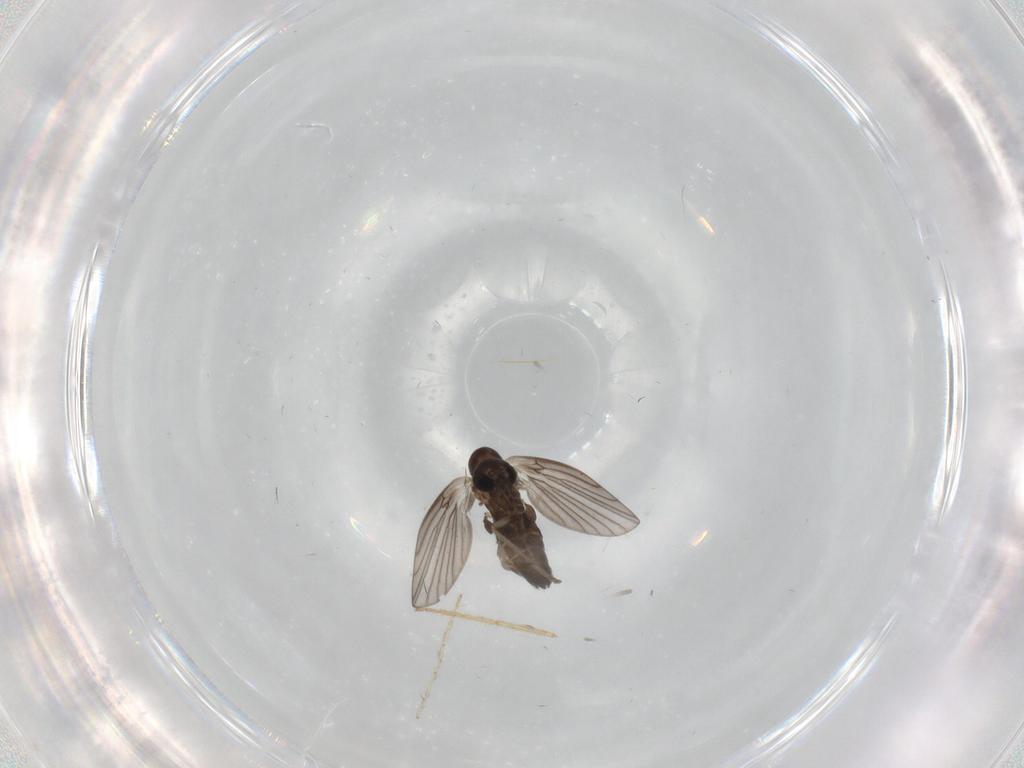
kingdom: Animalia
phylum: Arthropoda
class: Insecta
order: Diptera
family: Chironomidae
